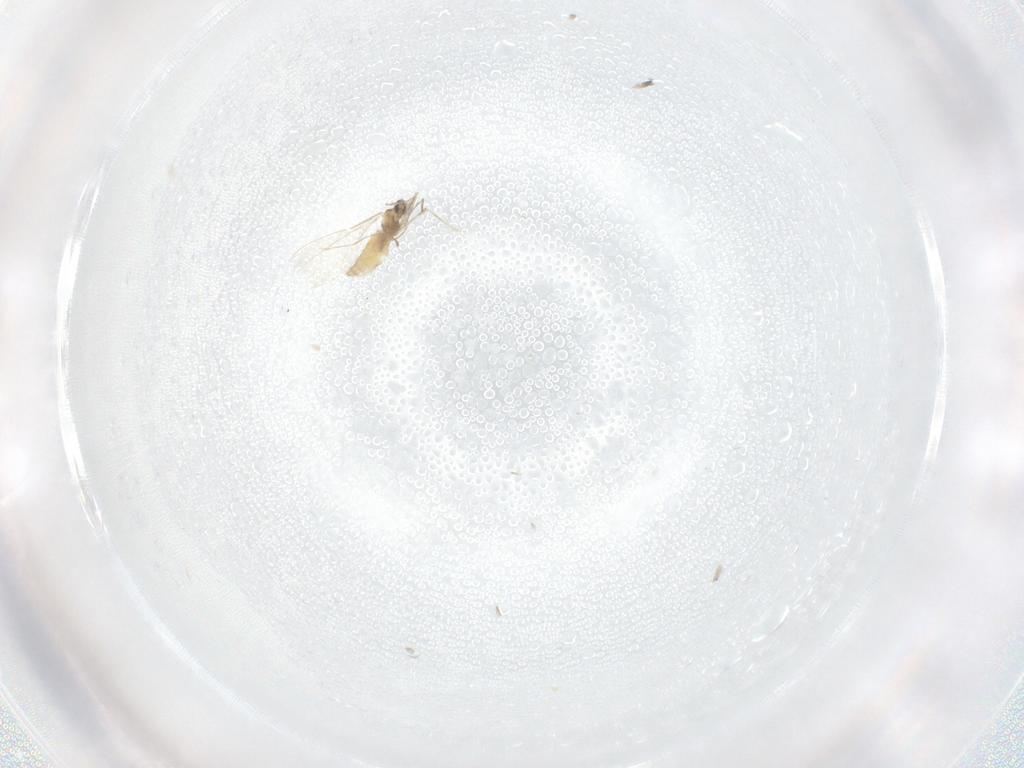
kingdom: Animalia
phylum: Arthropoda
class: Insecta
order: Diptera
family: Cecidomyiidae
